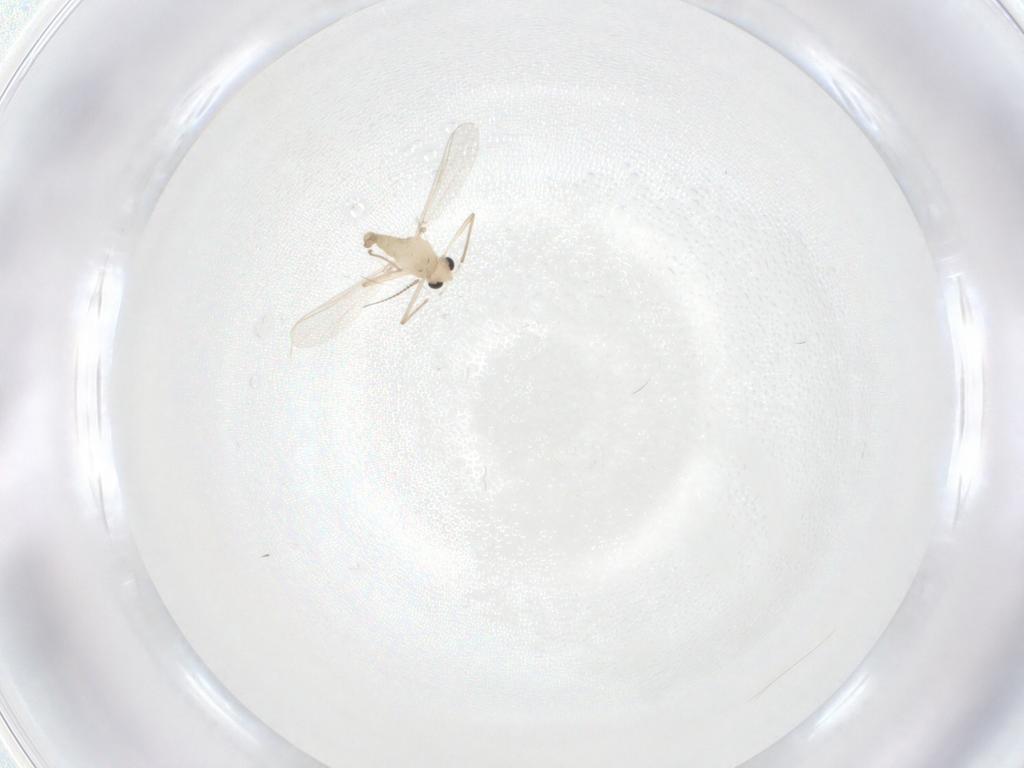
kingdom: Animalia
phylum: Arthropoda
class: Insecta
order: Diptera
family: Chironomidae
